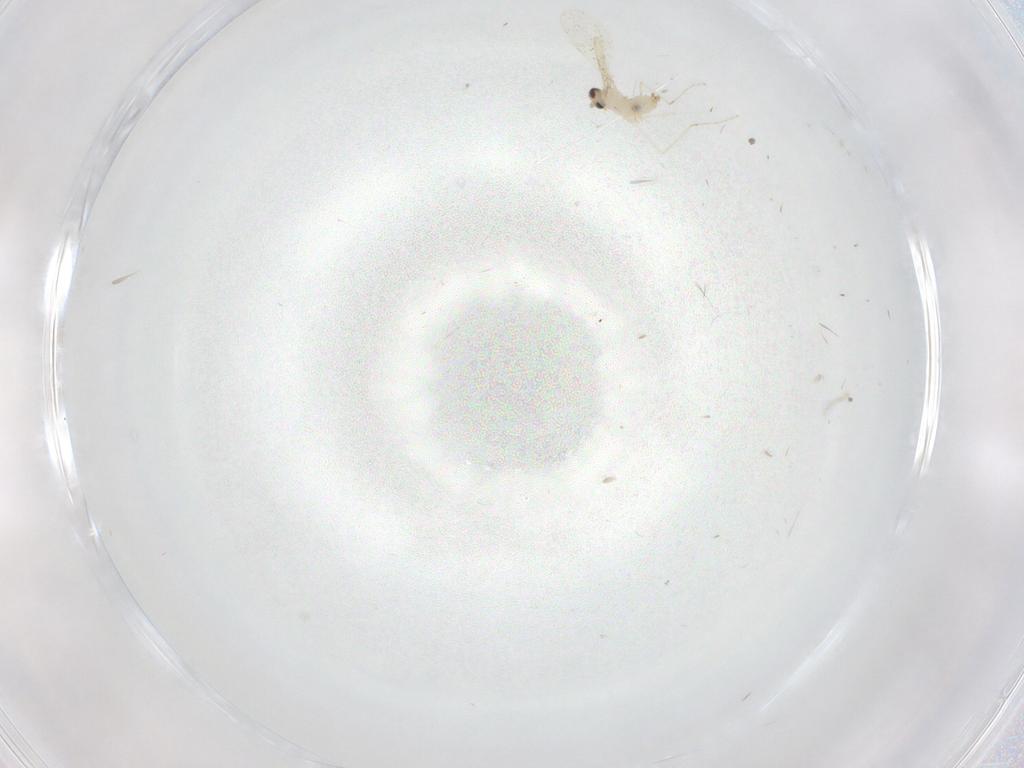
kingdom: Animalia
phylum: Arthropoda
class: Insecta
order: Diptera
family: Cecidomyiidae
